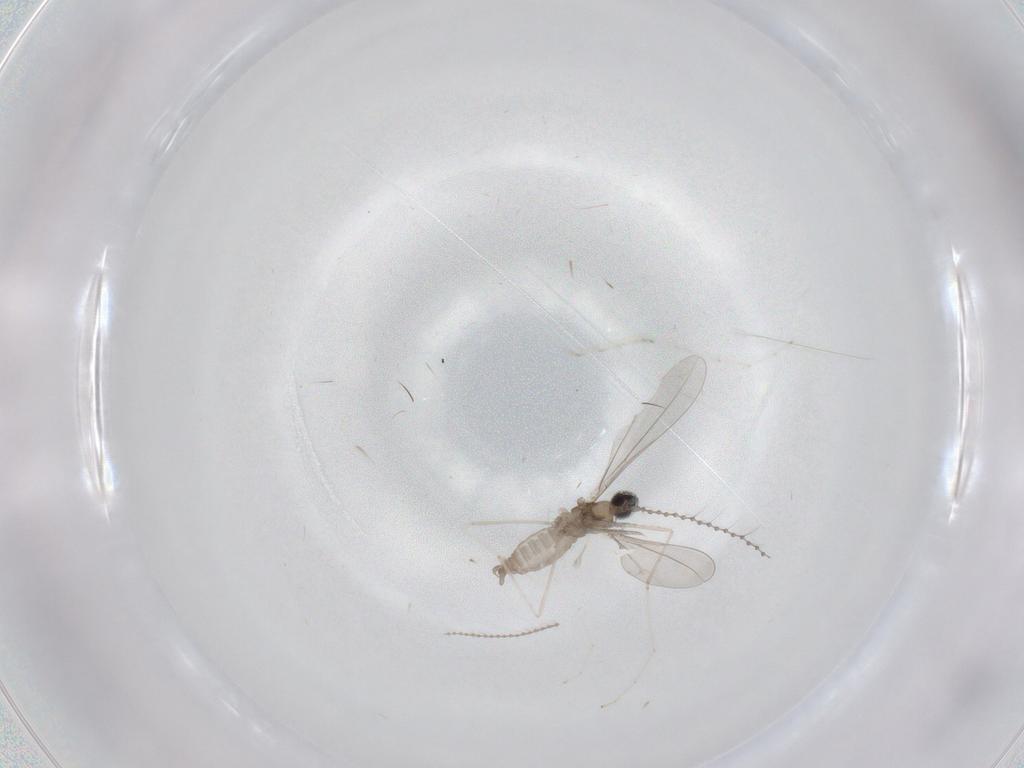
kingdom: Animalia
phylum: Arthropoda
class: Insecta
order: Diptera
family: Cecidomyiidae
